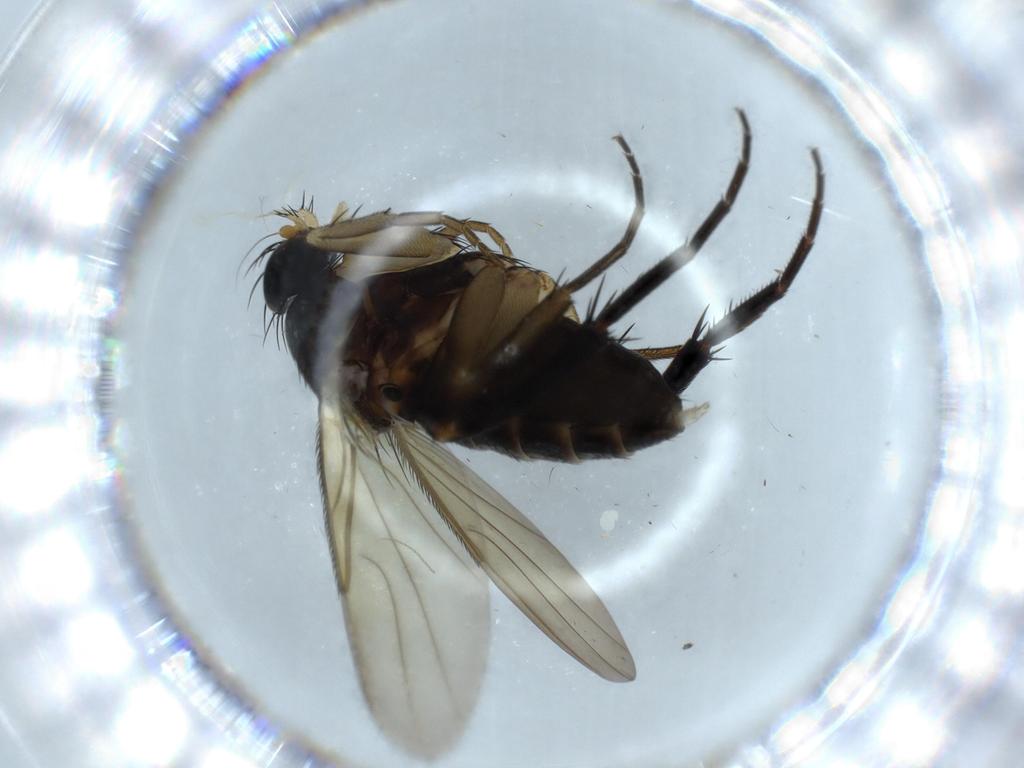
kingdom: Animalia
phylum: Arthropoda
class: Insecta
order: Diptera
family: Phoridae
